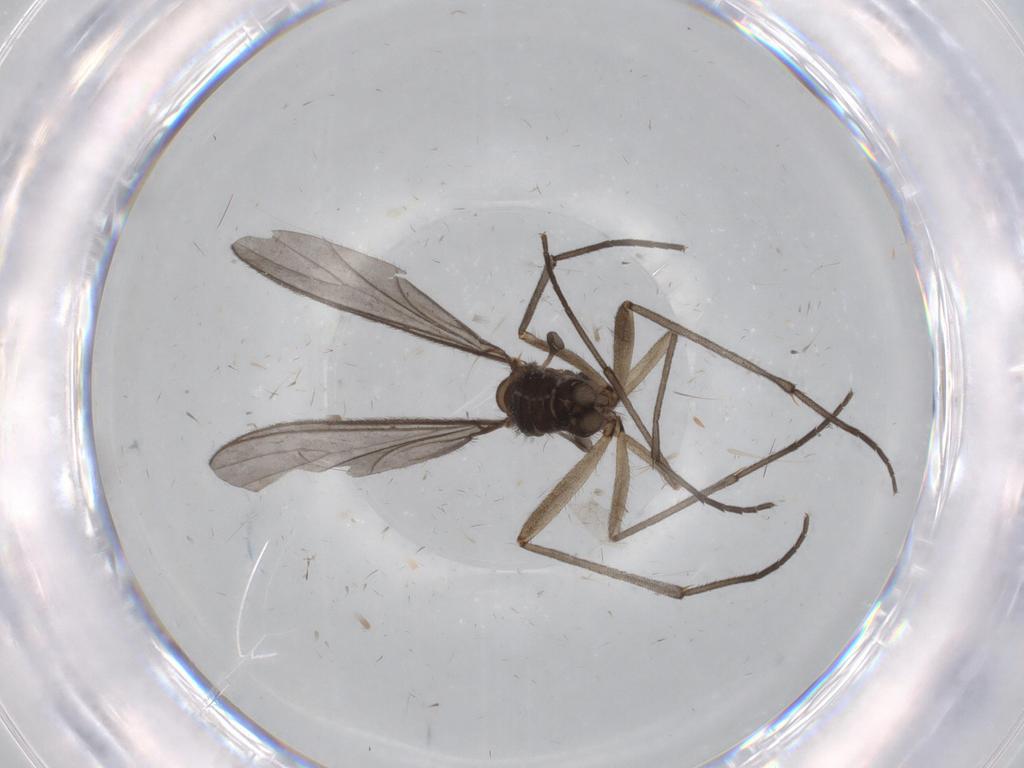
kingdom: Animalia
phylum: Arthropoda
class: Insecta
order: Diptera
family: Sciaridae
